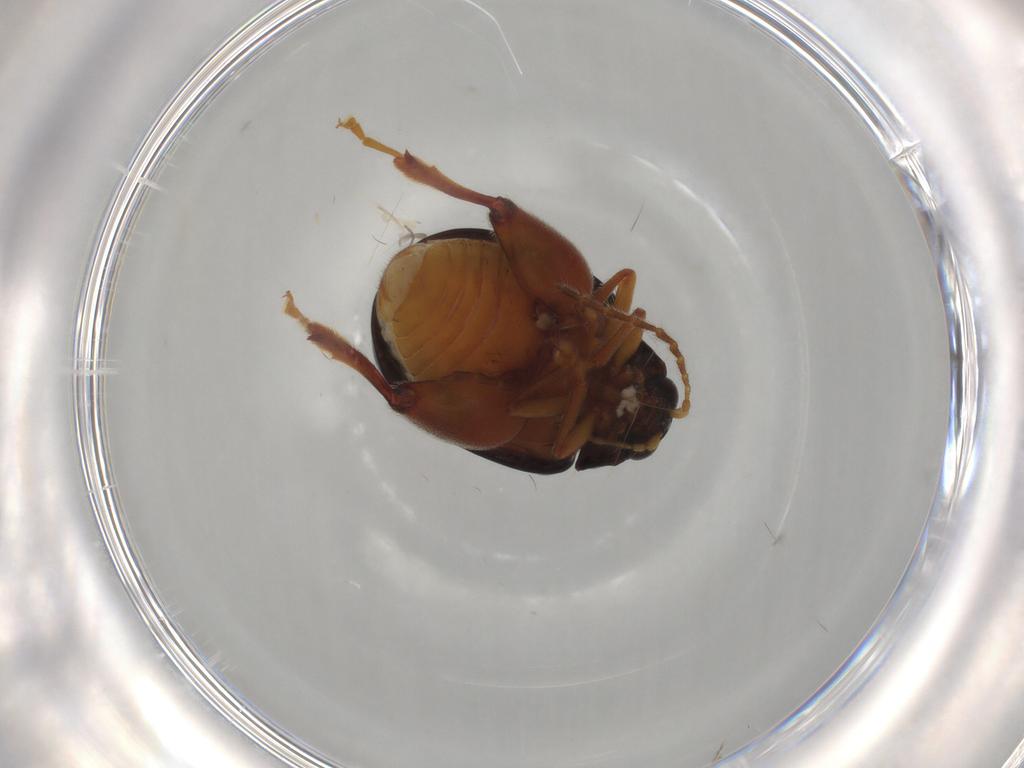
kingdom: Animalia
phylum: Arthropoda
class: Insecta
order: Coleoptera
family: Chrysomelidae
